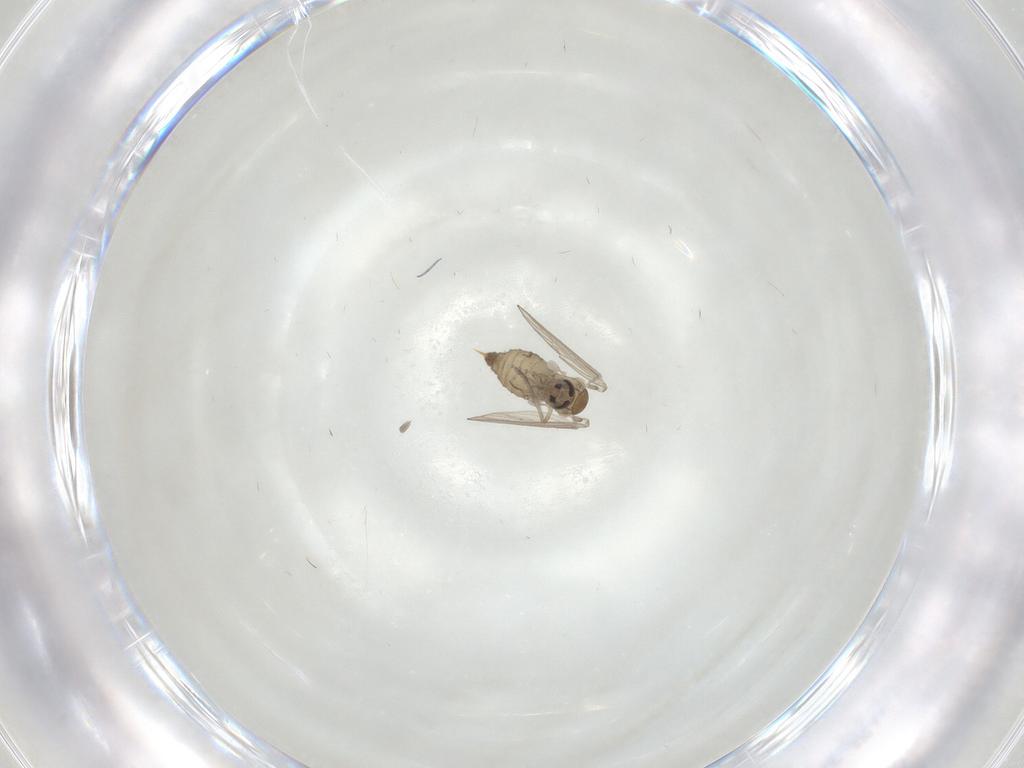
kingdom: Animalia
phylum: Arthropoda
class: Insecta
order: Diptera
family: Psychodidae
